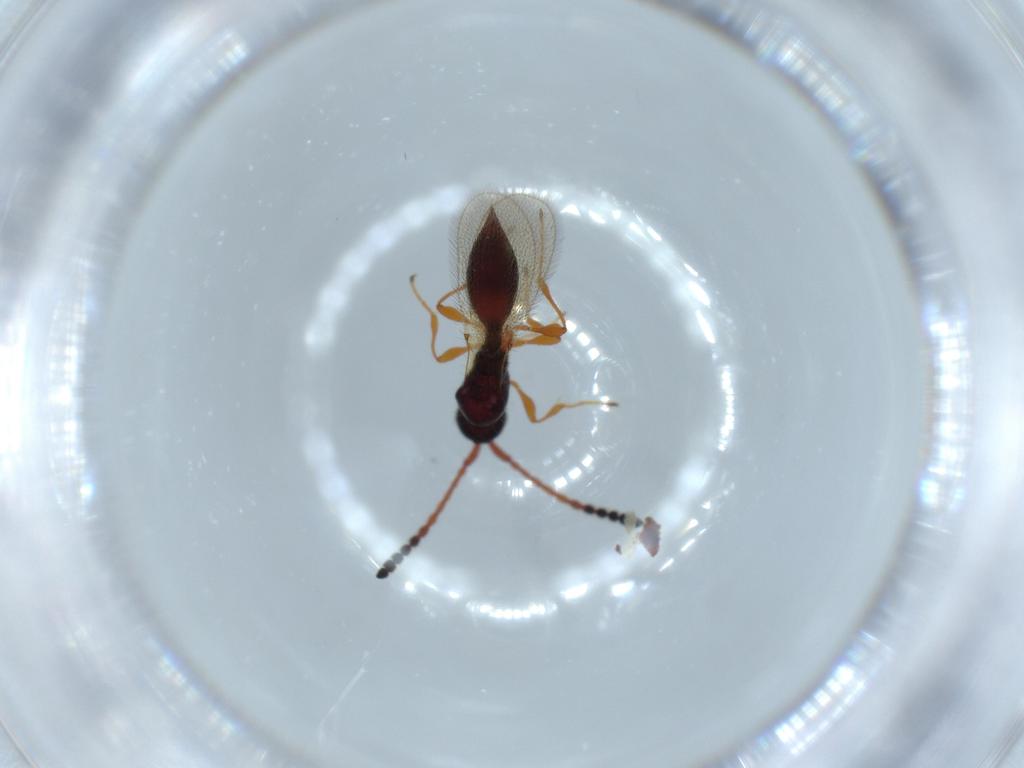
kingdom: Animalia
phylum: Arthropoda
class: Insecta
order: Hymenoptera
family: Diapriidae
